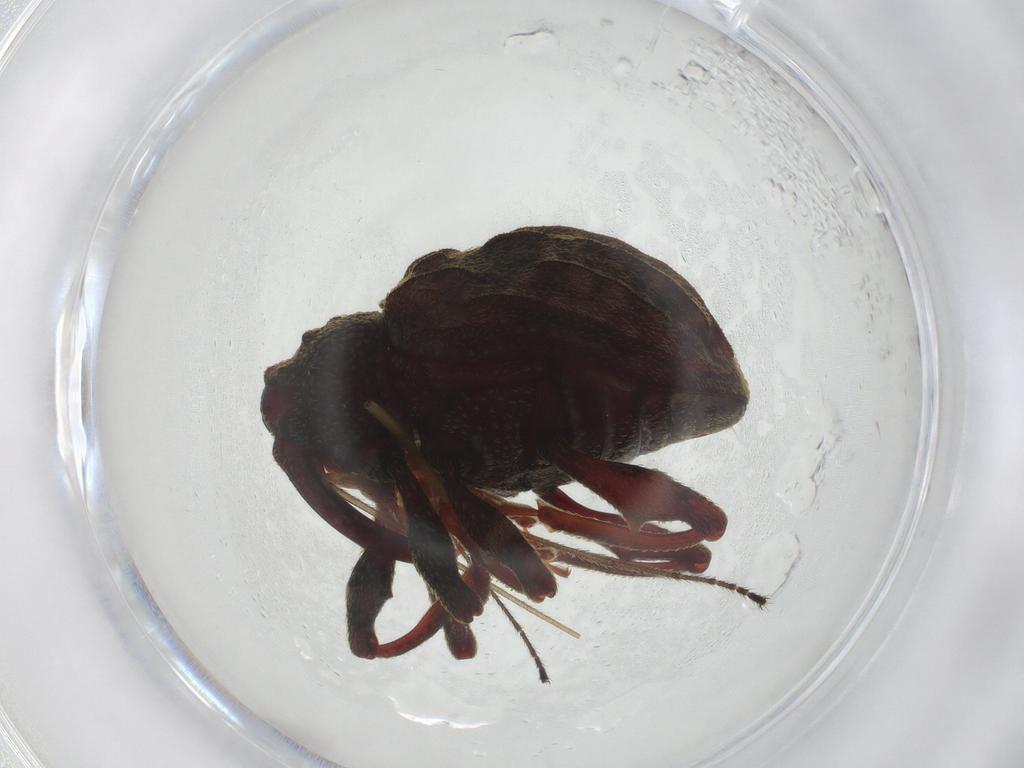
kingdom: Animalia
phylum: Arthropoda
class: Insecta
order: Coleoptera
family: Curculionidae
